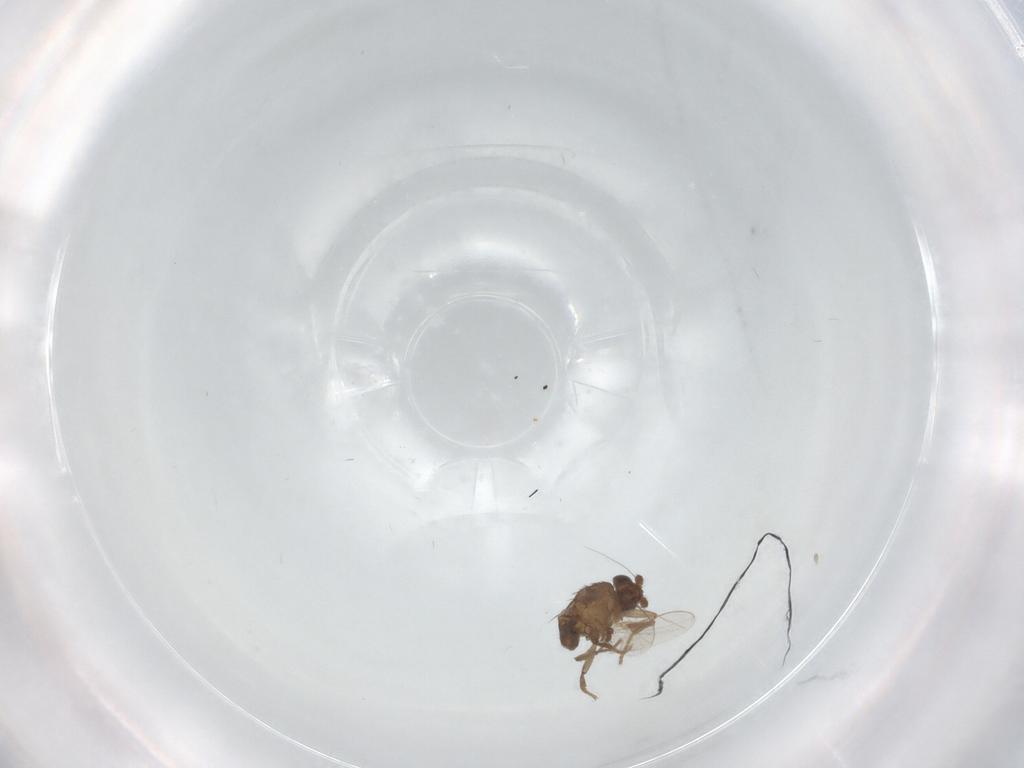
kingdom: Animalia
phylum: Arthropoda
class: Insecta
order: Diptera
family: Chironomidae
